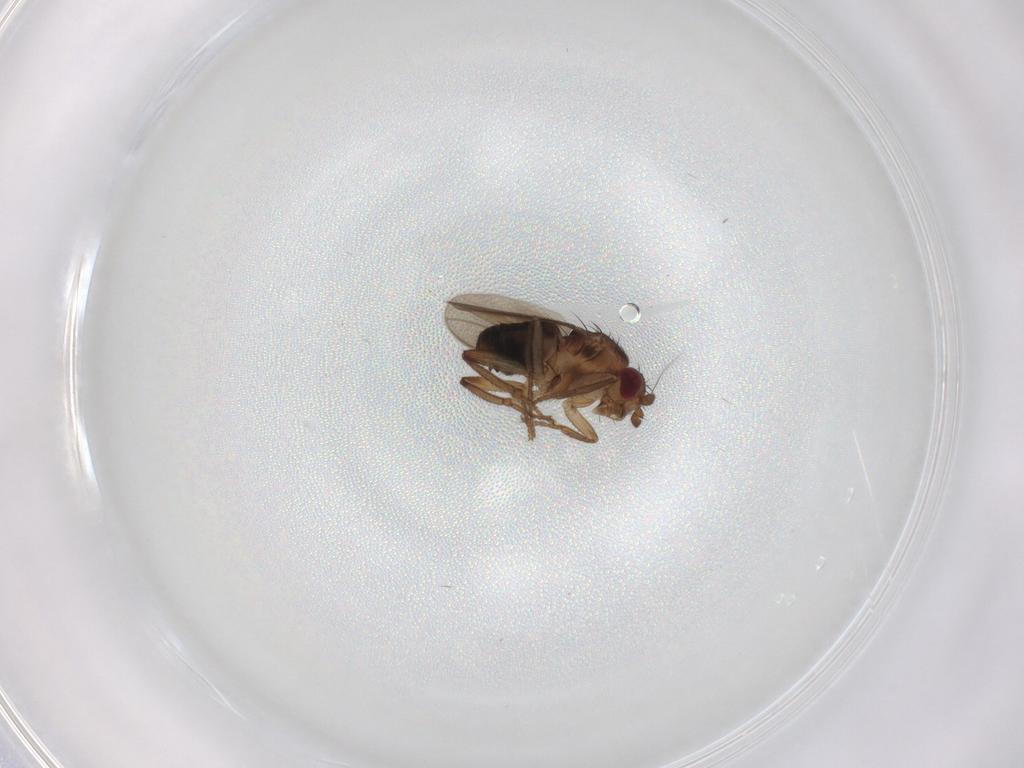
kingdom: Animalia
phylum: Arthropoda
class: Insecta
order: Diptera
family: Sphaeroceridae
